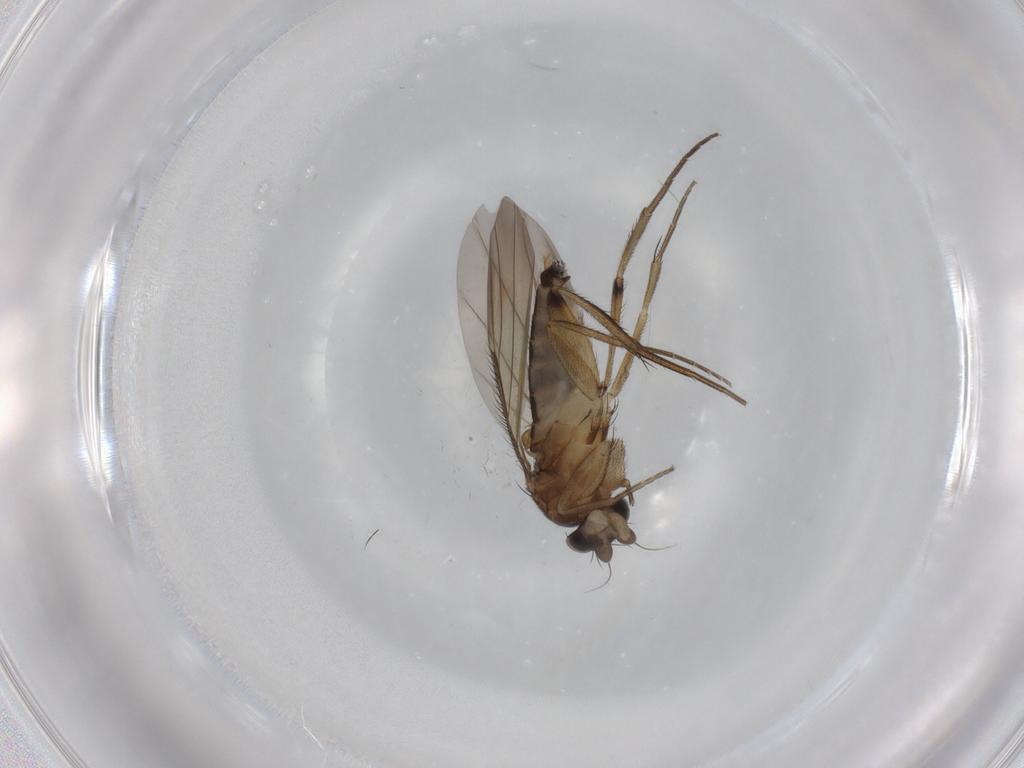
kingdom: Animalia
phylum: Arthropoda
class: Insecta
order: Diptera
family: Phoridae
